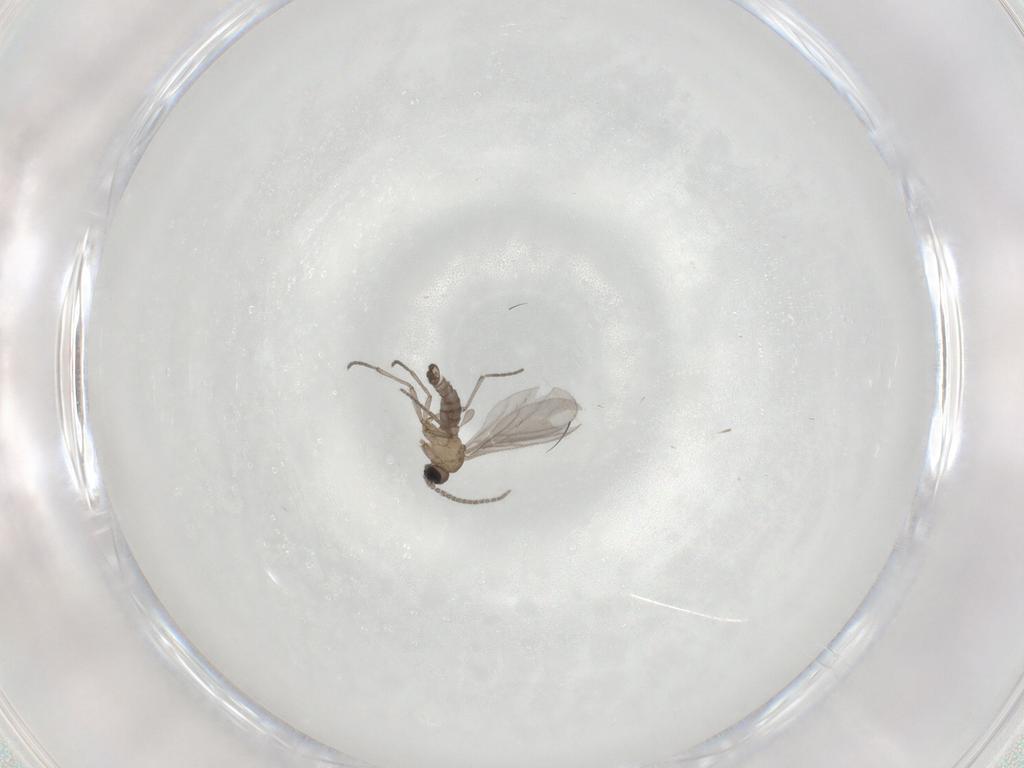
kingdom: Animalia
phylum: Arthropoda
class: Insecta
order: Diptera
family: Sciaridae
